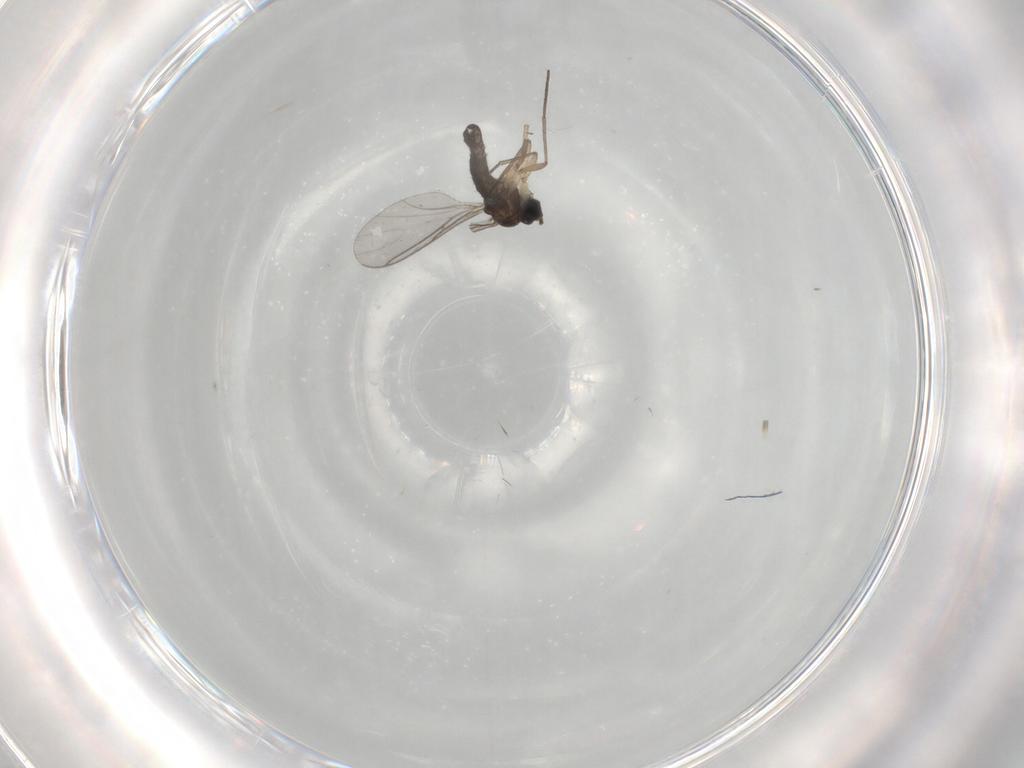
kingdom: Animalia
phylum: Arthropoda
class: Insecta
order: Diptera
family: Sciaridae
